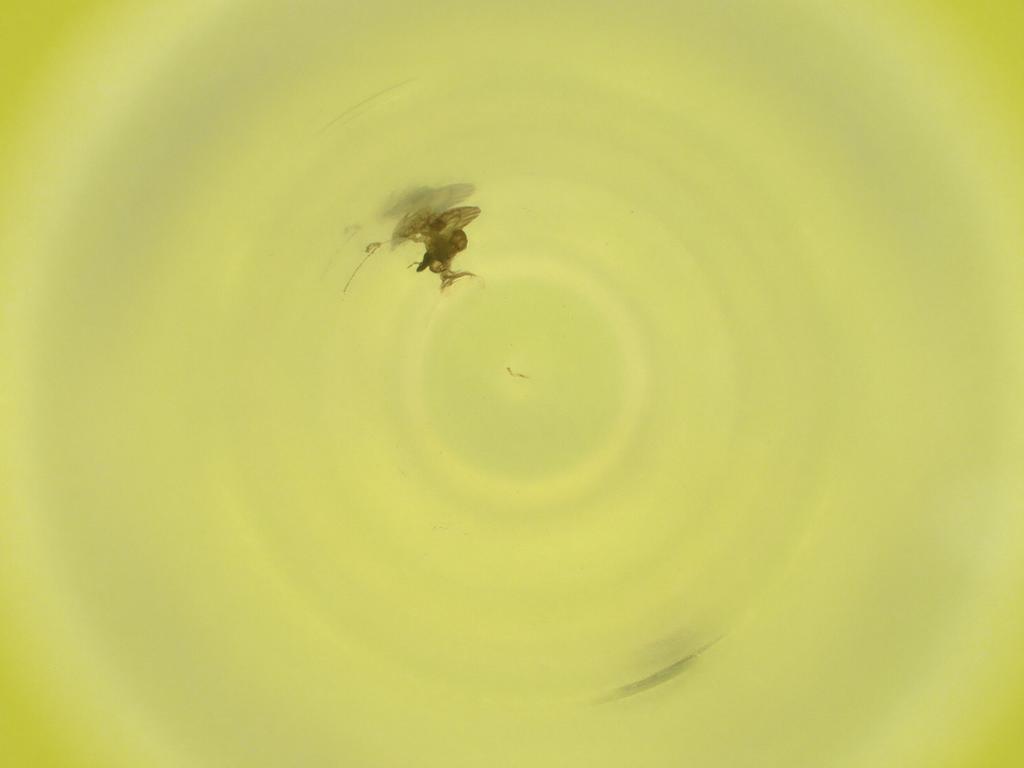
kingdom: Animalia
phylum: Arthropoda
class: Insecta
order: Diptera
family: Cecidomyiidae
